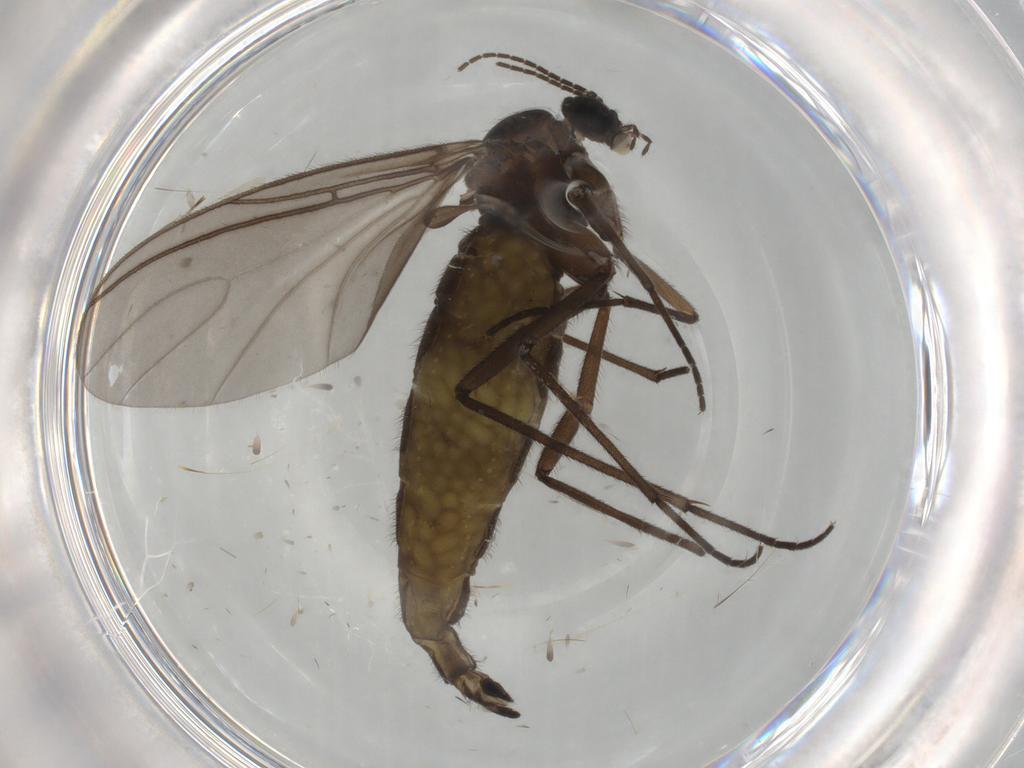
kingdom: Animalia
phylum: Arthropoda
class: Insecta
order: Diptera
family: Sciaridae
